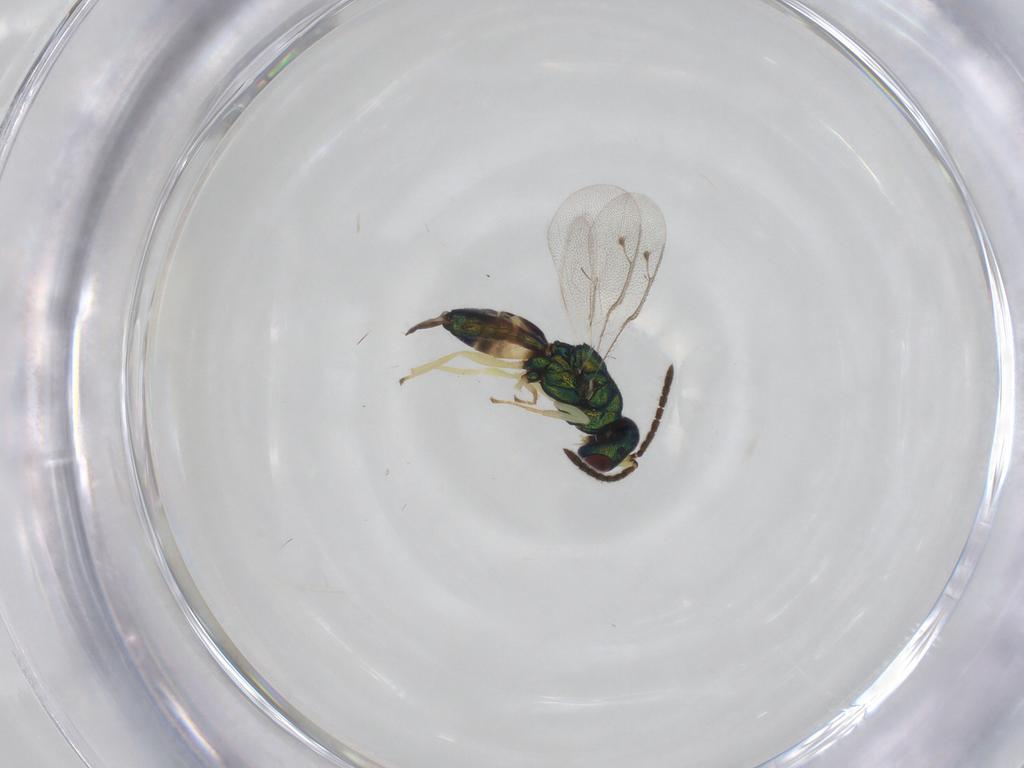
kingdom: Animalia
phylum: Arthropoda
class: Insecta
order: Hymenoptera
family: Pteromalidae
